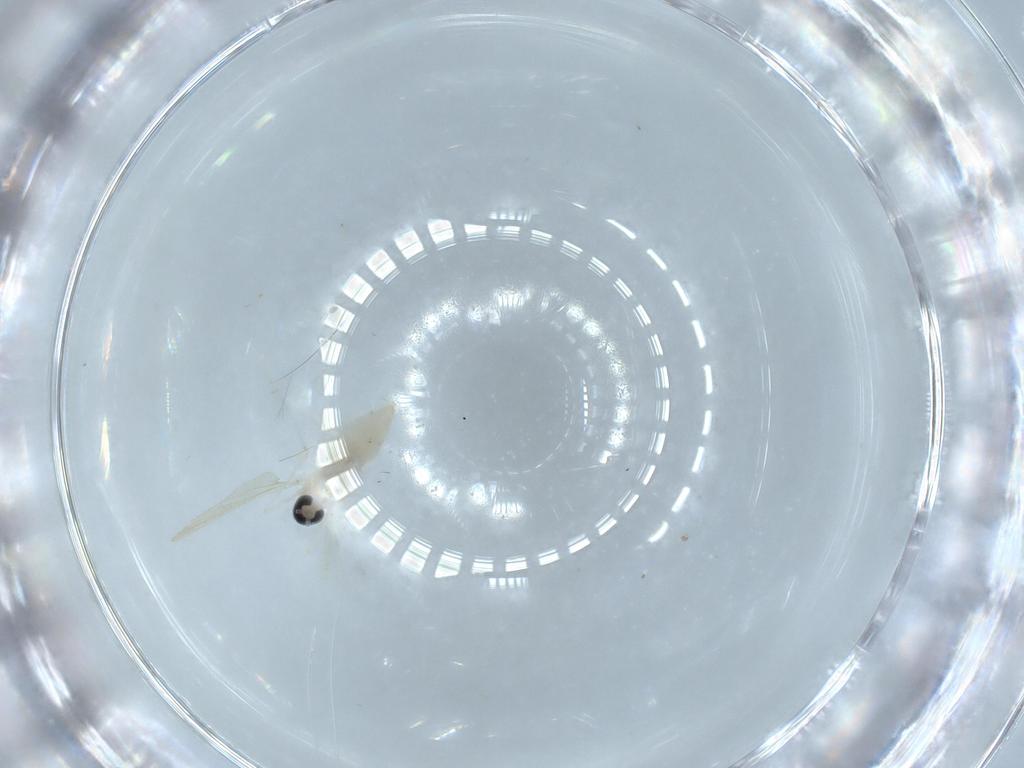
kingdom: Animalia
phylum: Arthropoda
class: Insecta
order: Diptera
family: Cecidomyiidae
